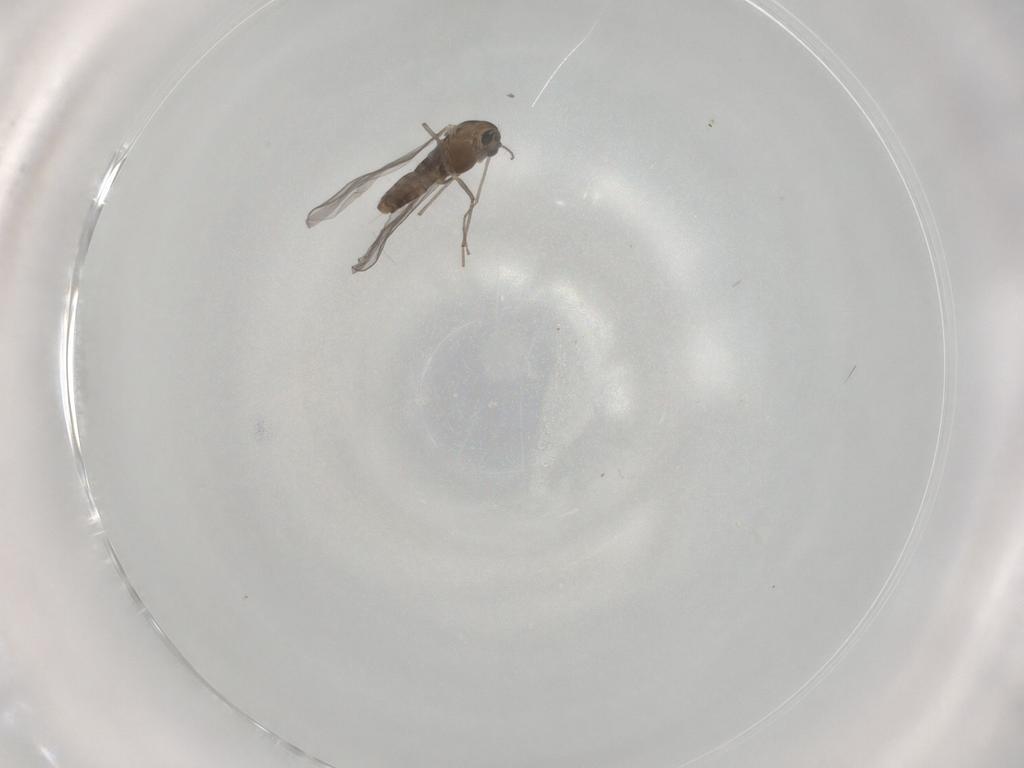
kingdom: Animalia
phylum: Arthropoda
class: Insecta
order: Diptera
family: Chironomidae
